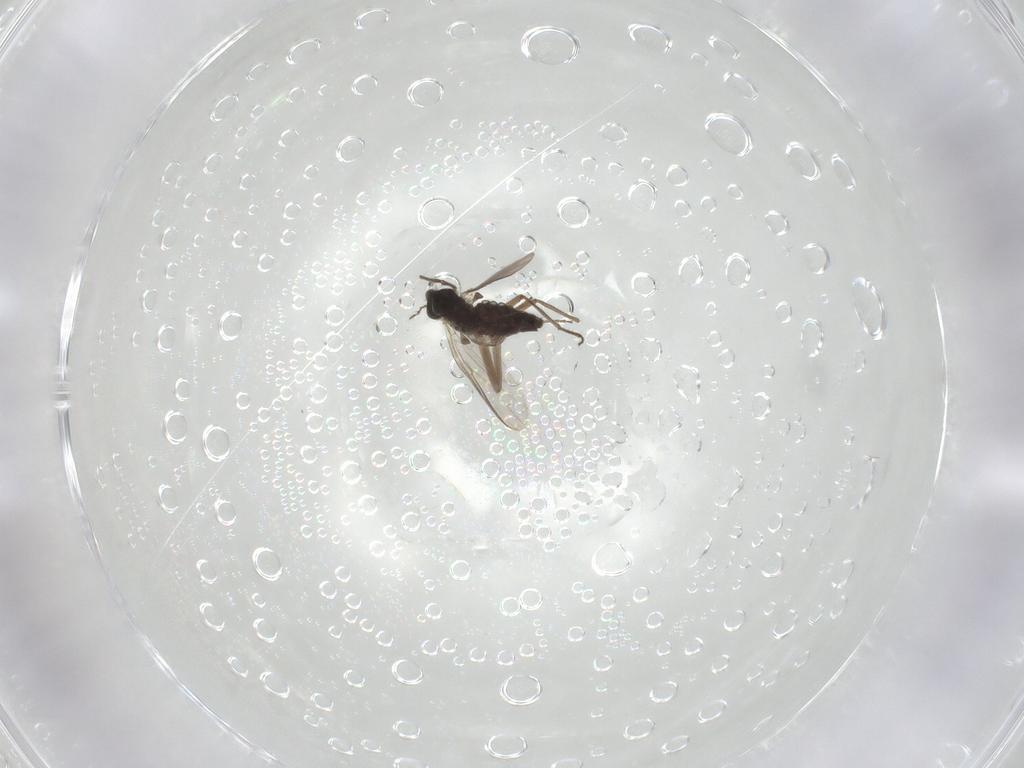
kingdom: Animalia
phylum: Arthropoda
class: Insecta
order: Diptera
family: Chironomidae
